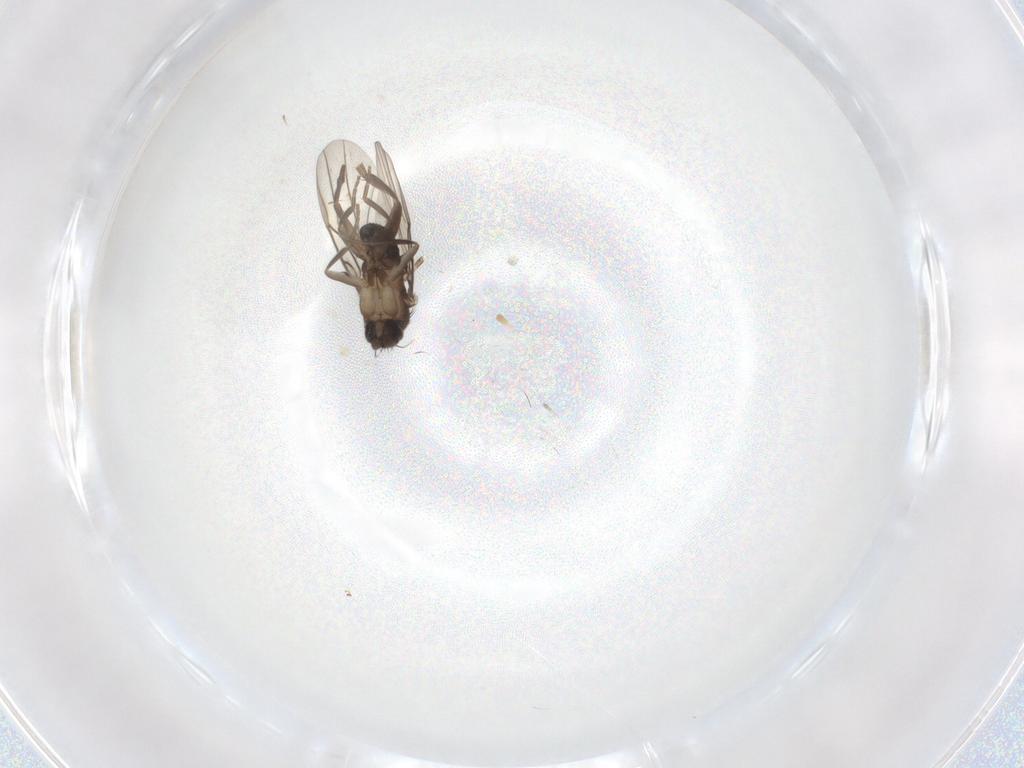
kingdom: Animalia
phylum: Arthropoda
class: Insecta
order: Diptera
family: Phoridae
